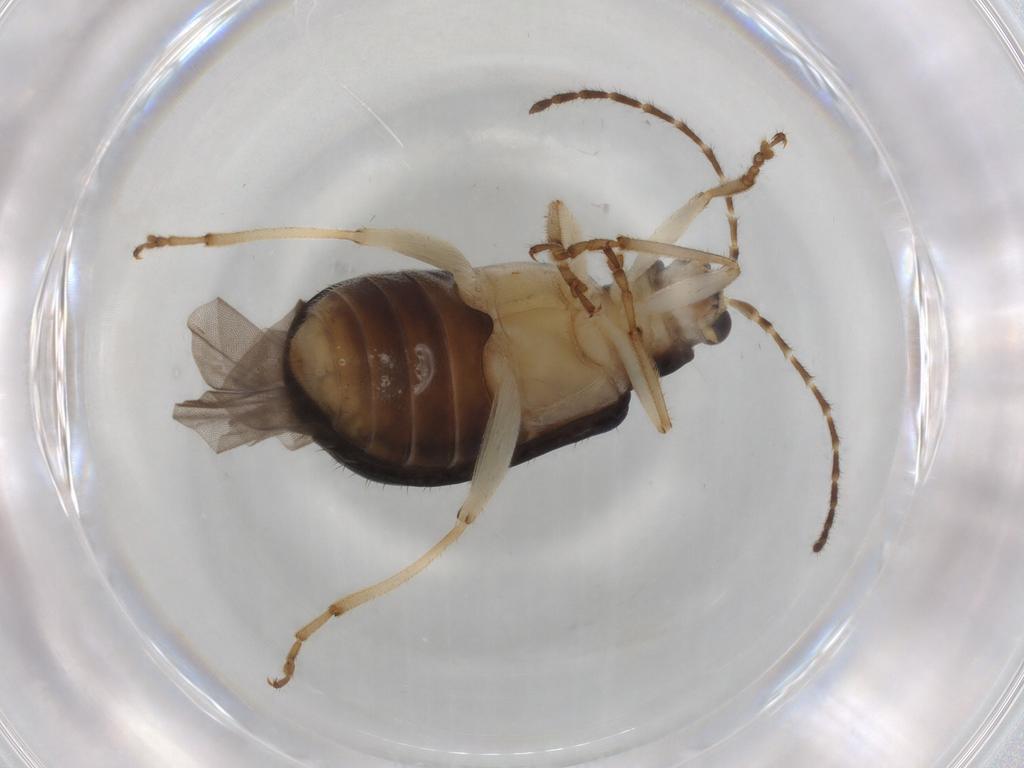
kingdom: Animalia
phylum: Arthropoda
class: Insecta
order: Coleoptera
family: Chrysomelidae
